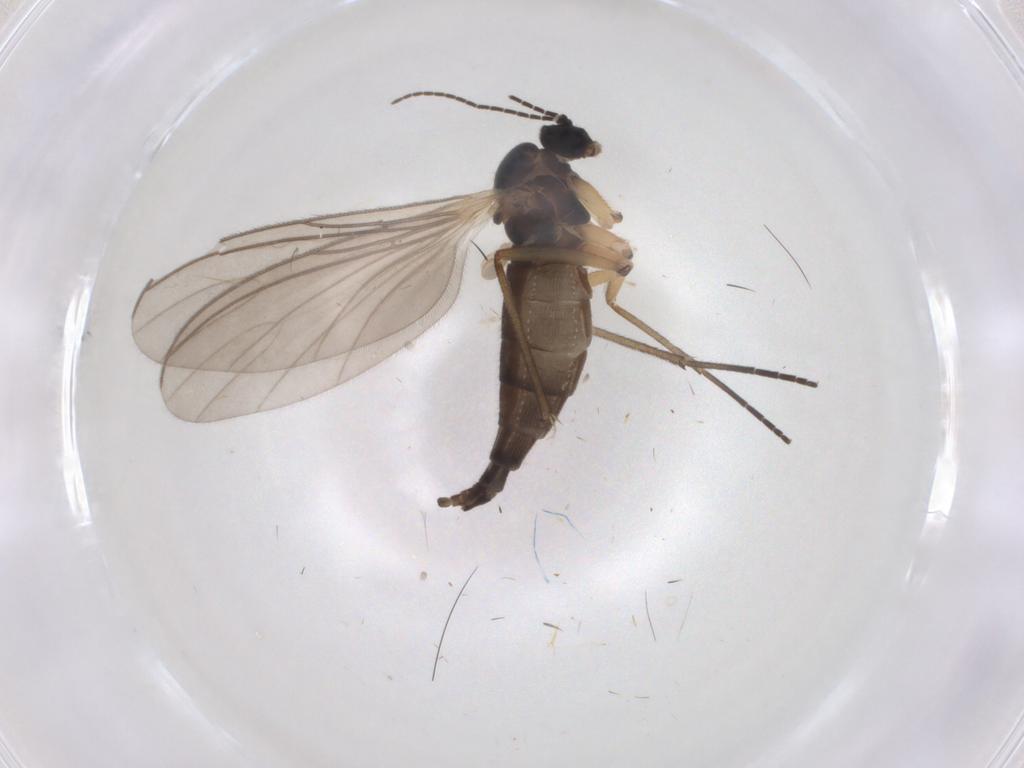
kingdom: Animalia
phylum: Arthropoda
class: Insecta
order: Diptera
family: Sciaridae
